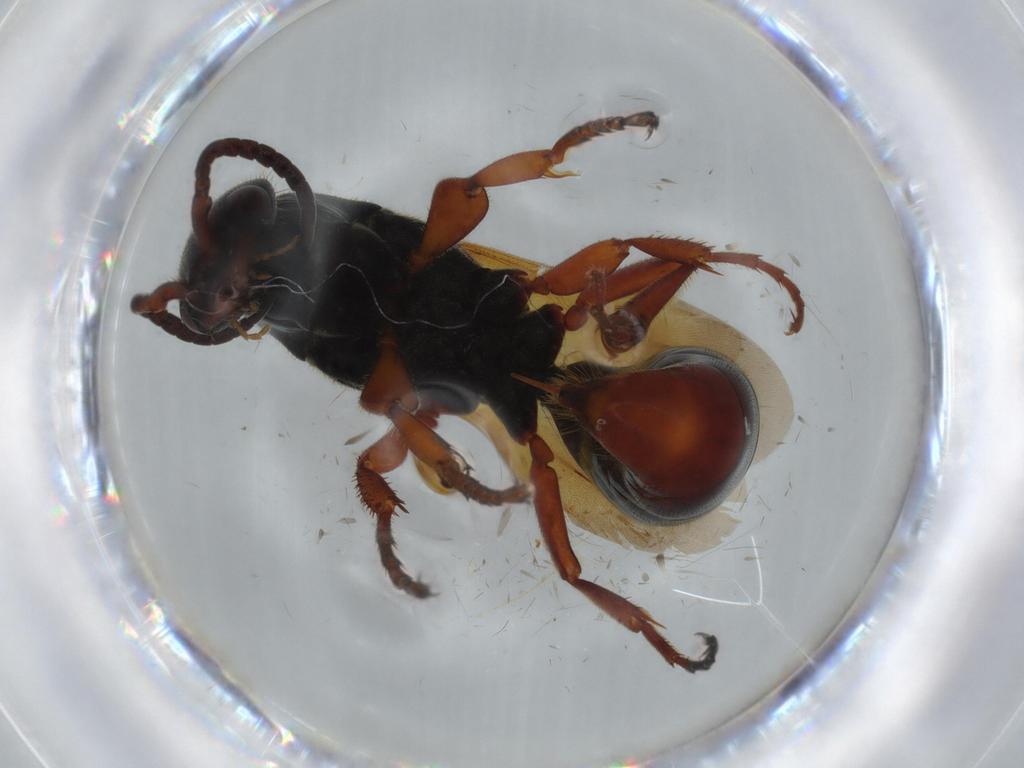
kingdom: Animalia
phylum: Arthropoda
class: Insecta
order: Hymenoptera
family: Bethylidae
